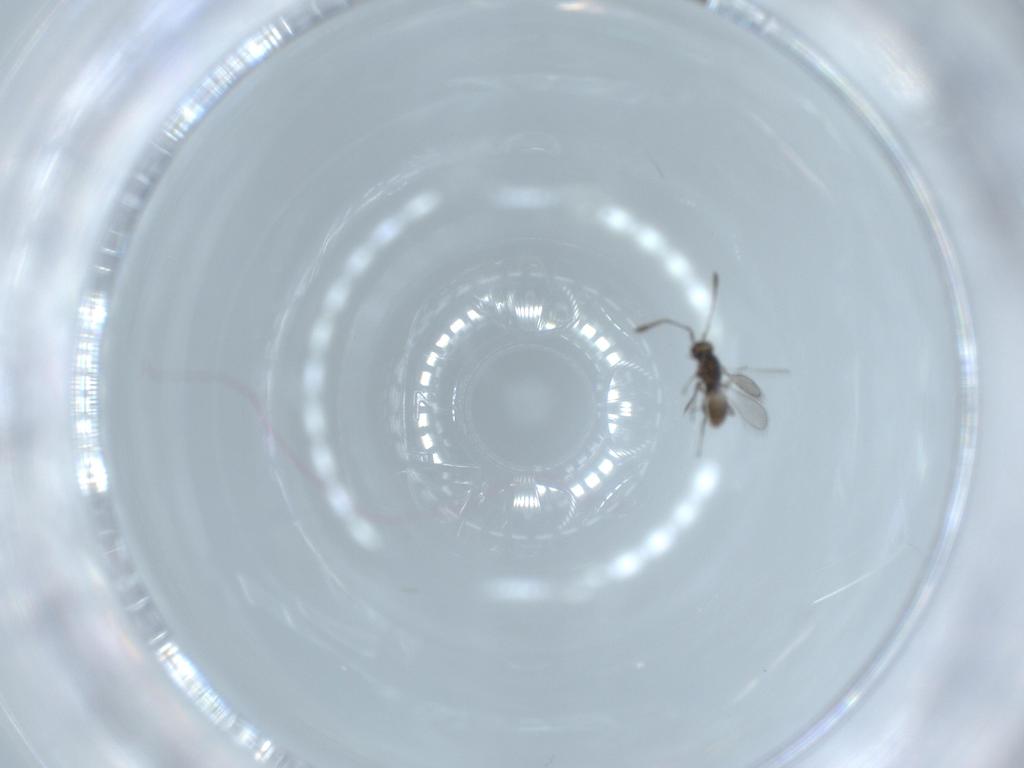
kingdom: Animalia
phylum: Arthropoda
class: Insecta
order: Hymenoptera
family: Mymaridae
